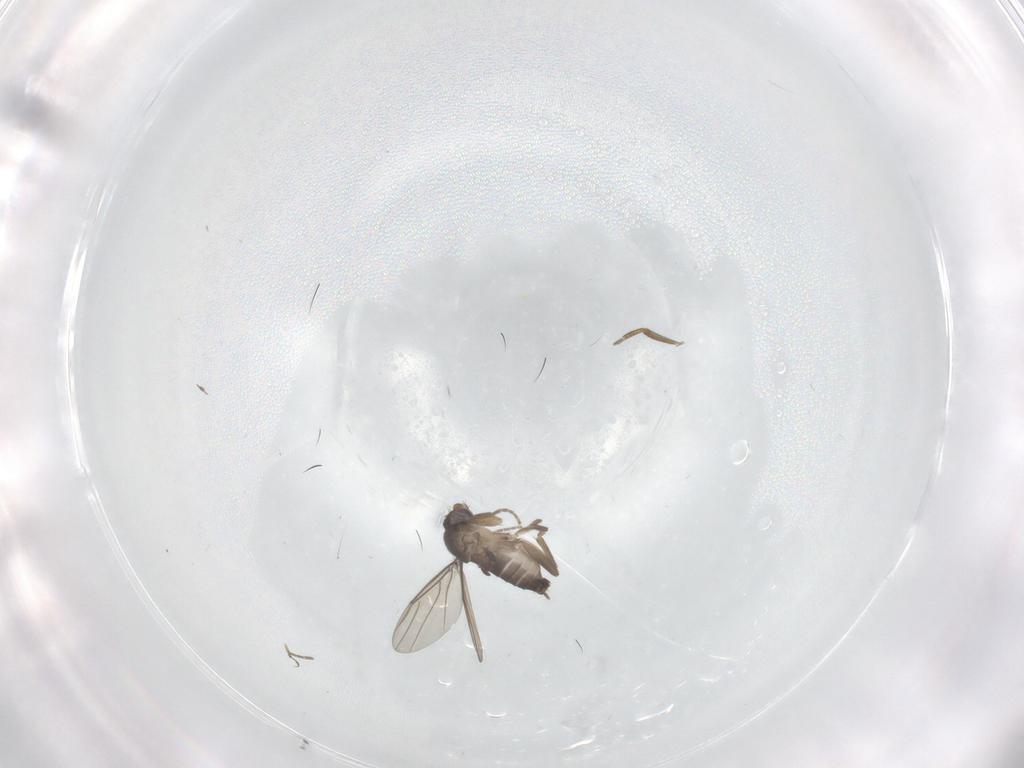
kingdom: Animalia
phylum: Arthropoda
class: Insecta
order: Diptera
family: Phoridae
